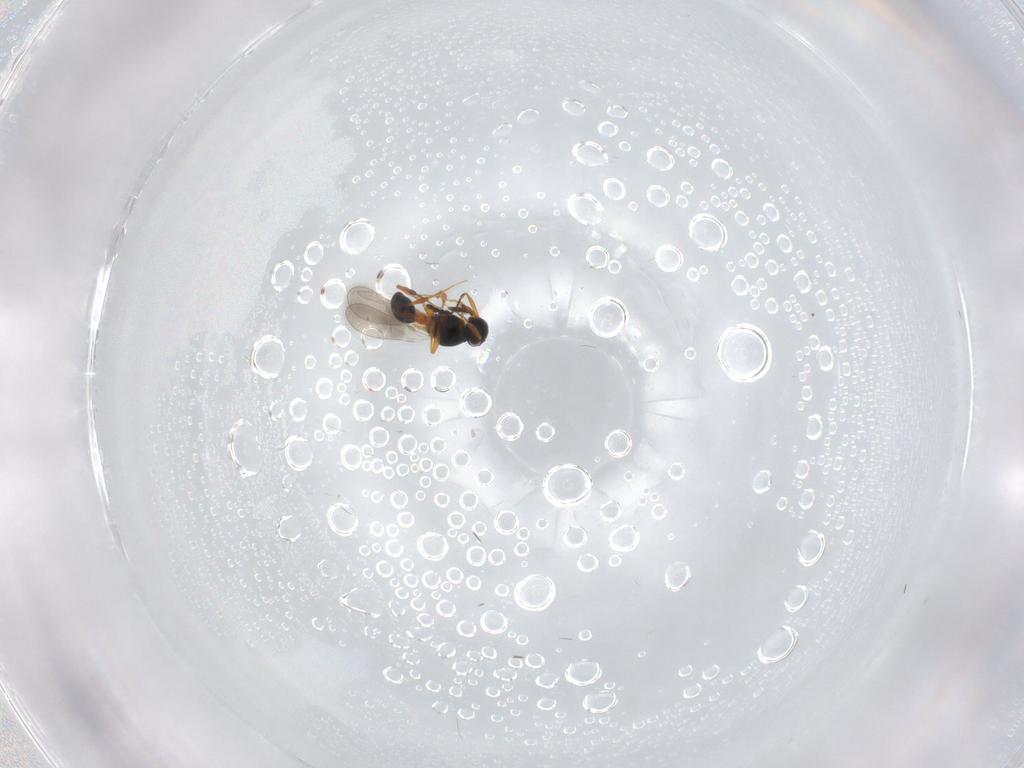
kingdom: Animalia
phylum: Arthropoda
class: Insecta
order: Hymenoptera
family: Platygastridae
